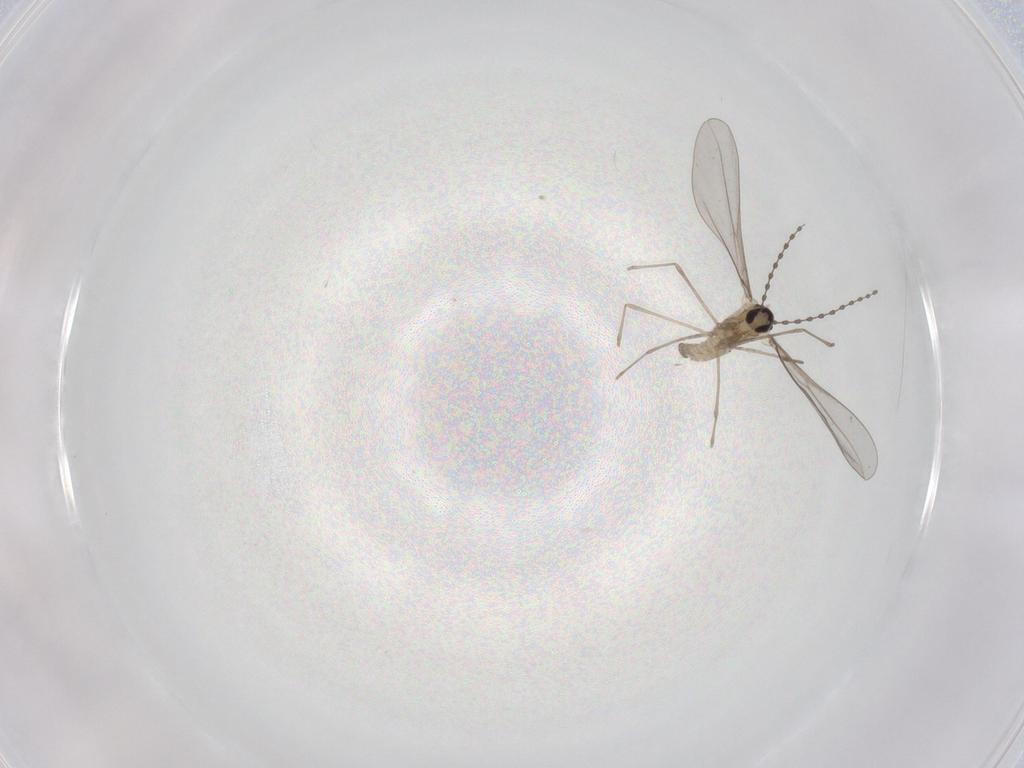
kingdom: Animalia
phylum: Arthropoda
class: Insecta
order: Diptera
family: Cecidomyiidae
